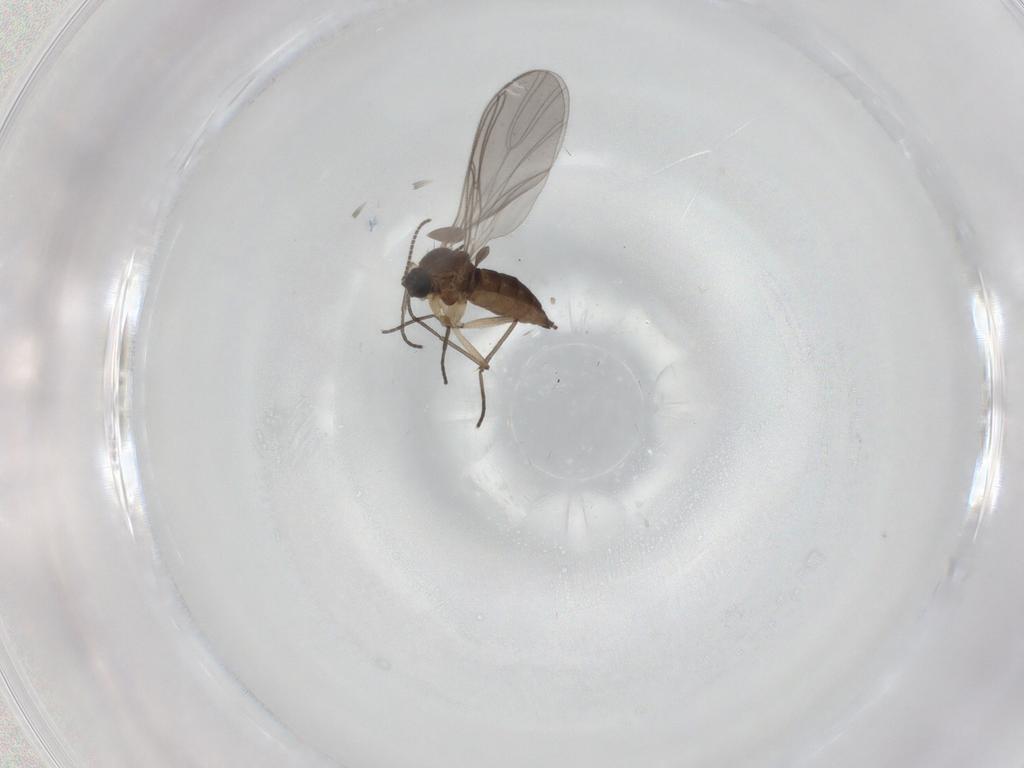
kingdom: Animalia
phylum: Arthropoda
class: Insecta
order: Diptera
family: Sciaridae
